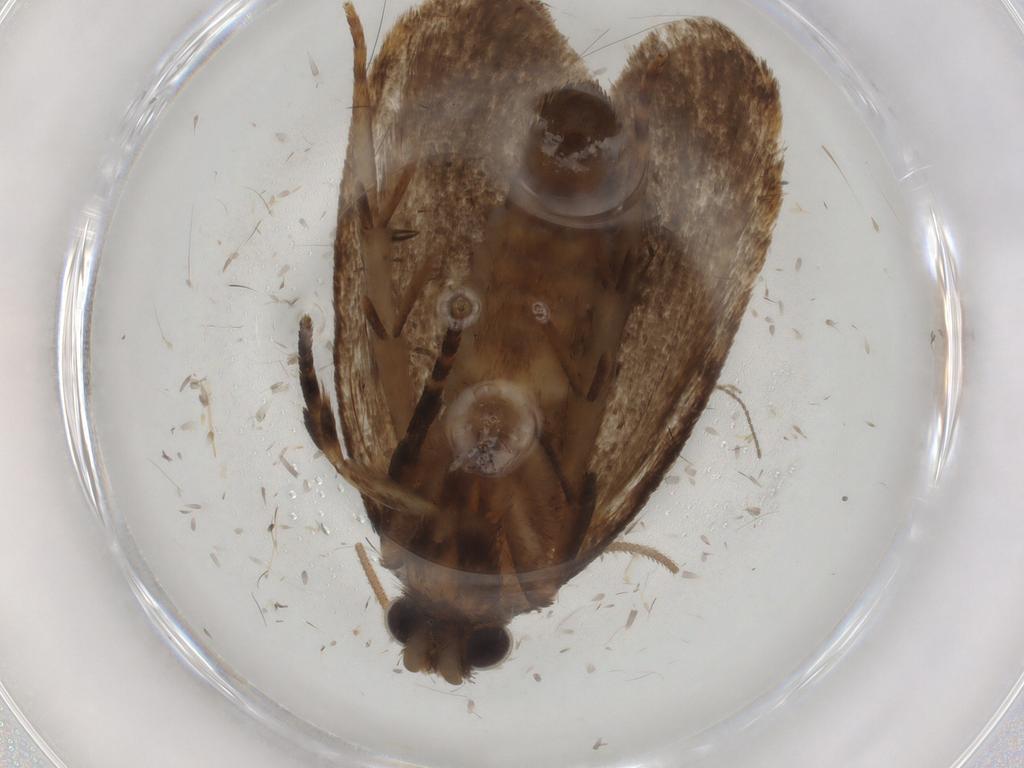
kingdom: Animalia
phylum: Arthropoda
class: Insecta
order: Lepidoptera
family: Tineidae
